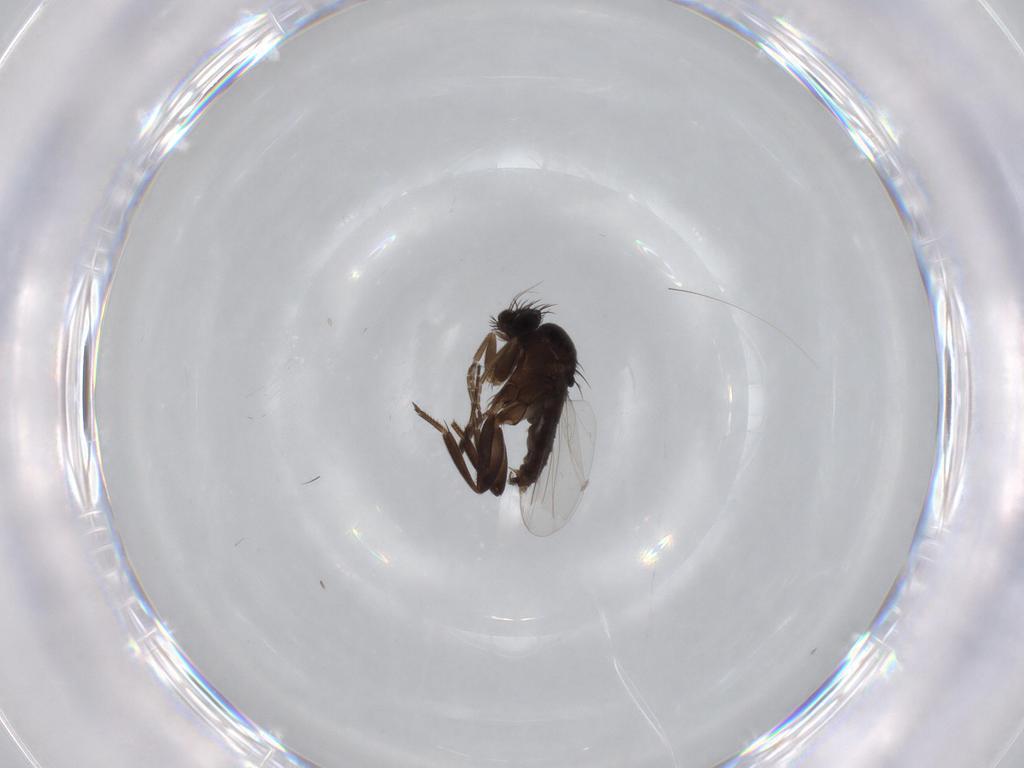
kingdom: Animalia
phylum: Arthropoda
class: Insecta
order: Diptera
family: Phoridae
